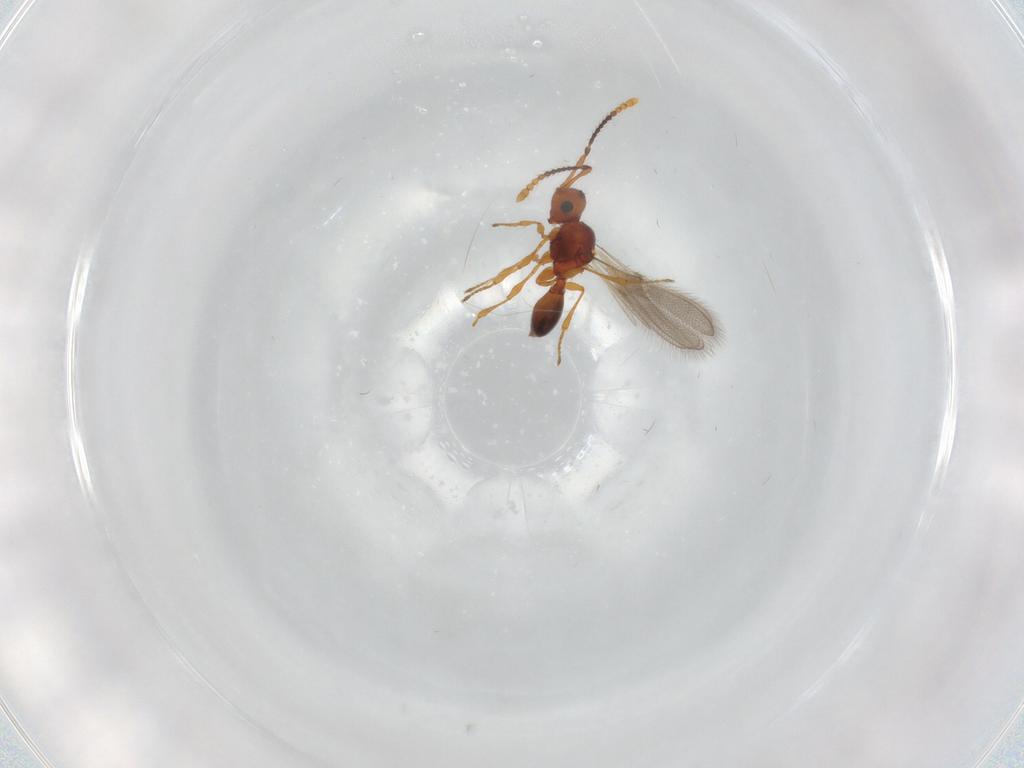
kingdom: Animalia
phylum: Arthropoda
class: Insecta
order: Hymenoptera
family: Diapriidae
